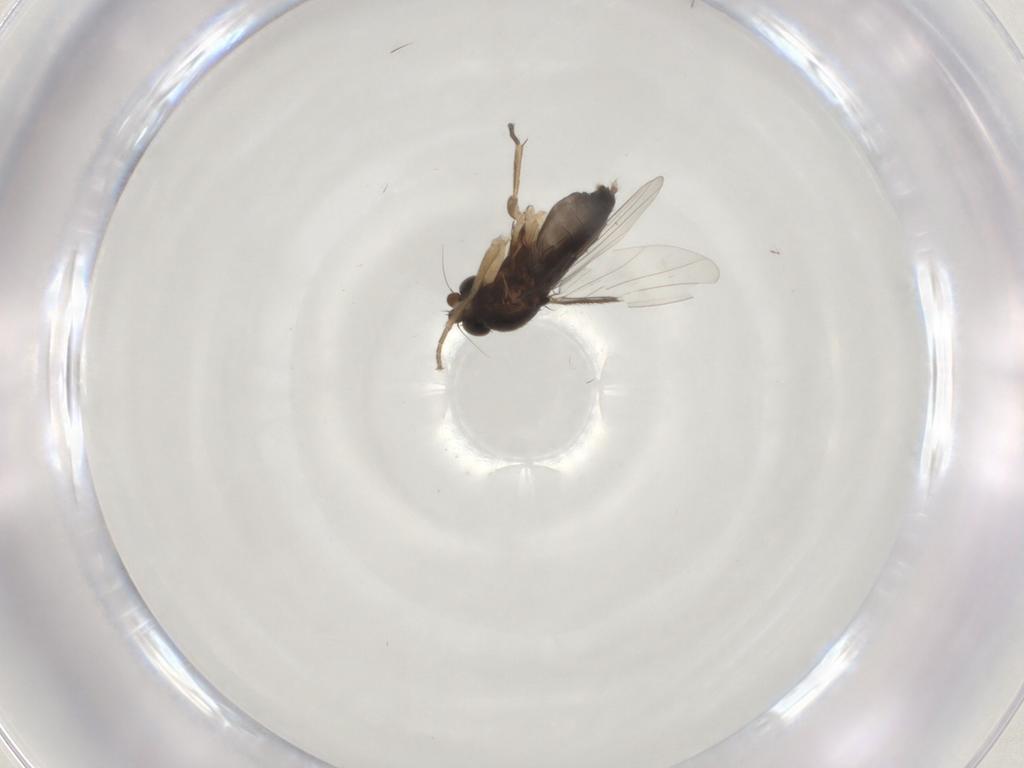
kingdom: Animalia
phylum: Arthropoda
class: Insecta
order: Diptera
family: Phoridae
